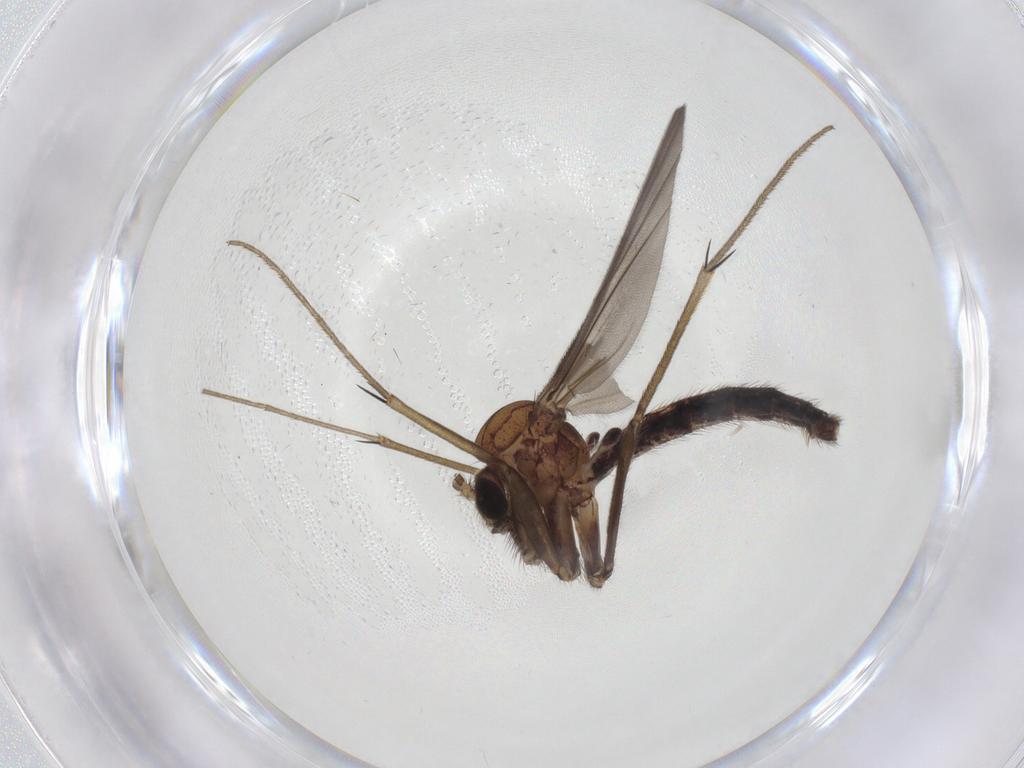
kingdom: Animalia
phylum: Arthropoda
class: Insecta
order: Diptera
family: Mycetophilidae
